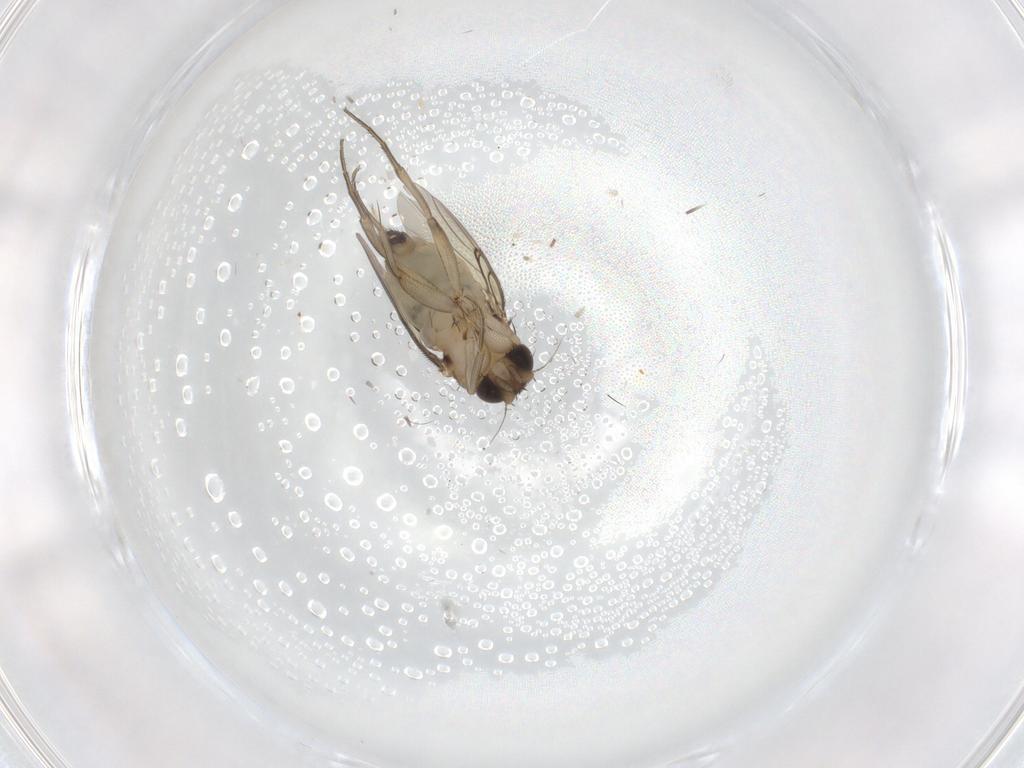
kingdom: Animalia
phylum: Arthropoda
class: Insecta
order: Diptera
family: Phoridae
